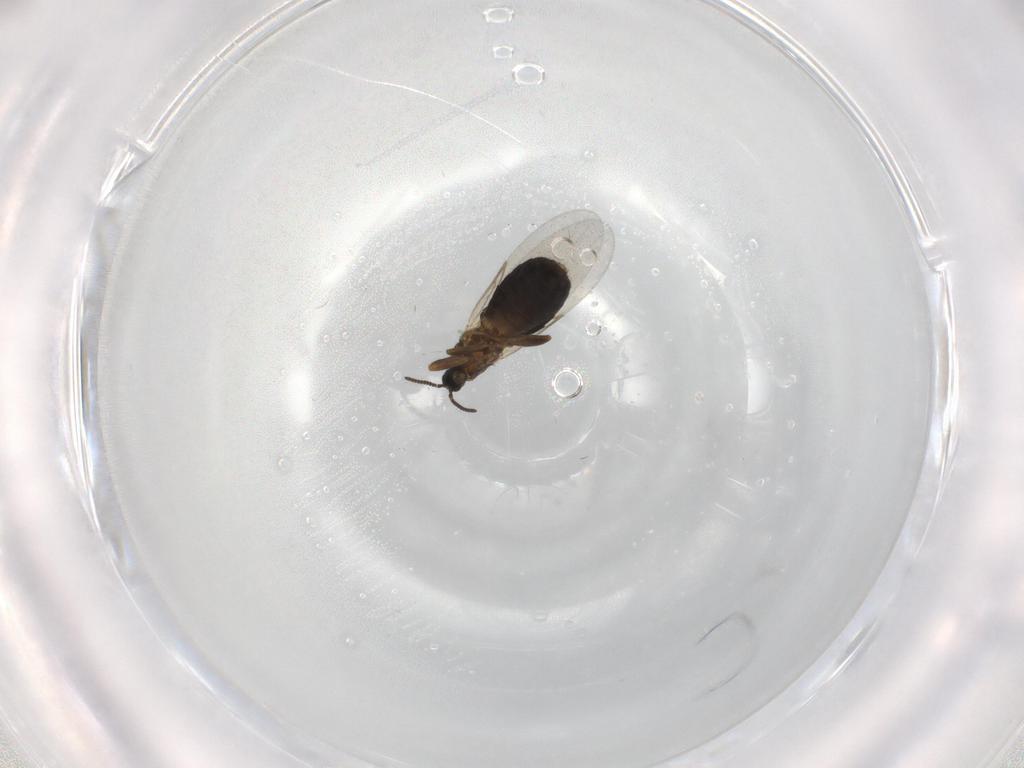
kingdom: Animalia
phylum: Arthropoda
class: Insecta
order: Diptera
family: Scatopsidae
